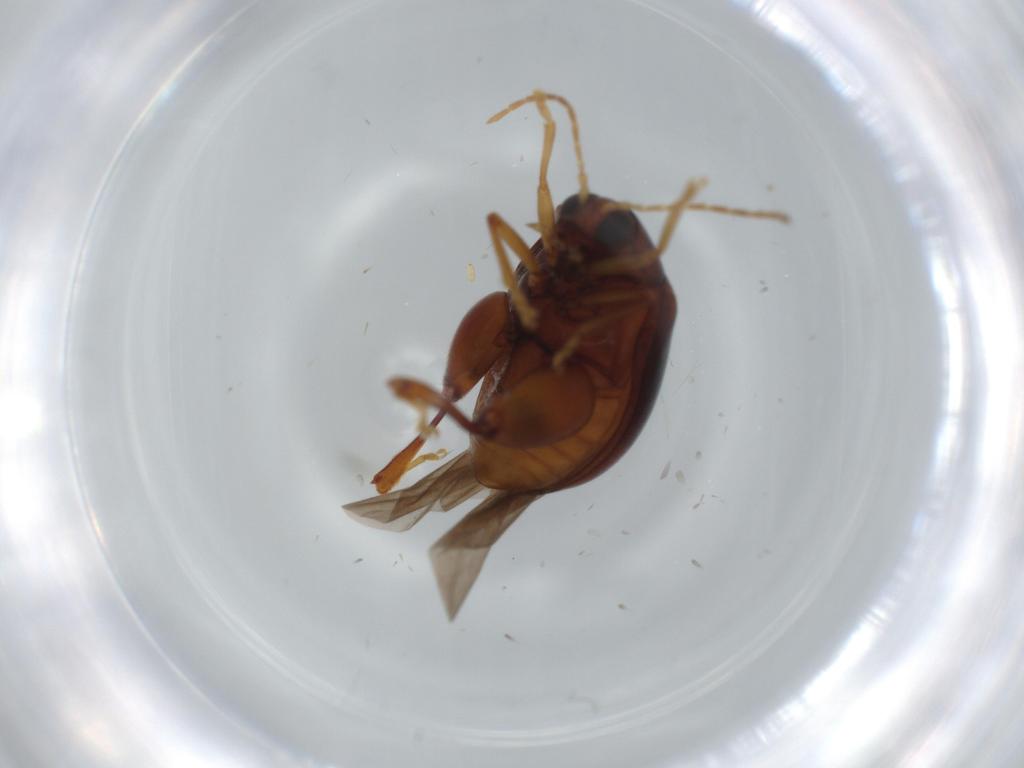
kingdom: Animalia
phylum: Arthropoda
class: Insecta
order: Coleoptera
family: Chrysomelidae
